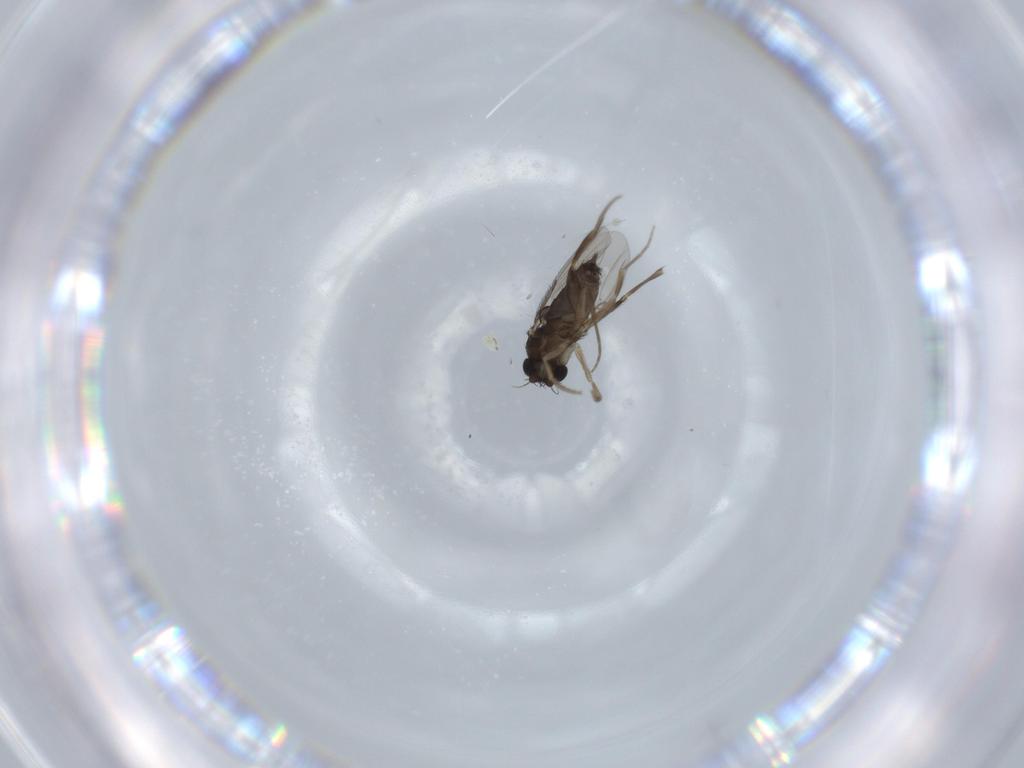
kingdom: Animalia
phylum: Arthropoda
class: Insecta
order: Diptera
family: Phoridae
